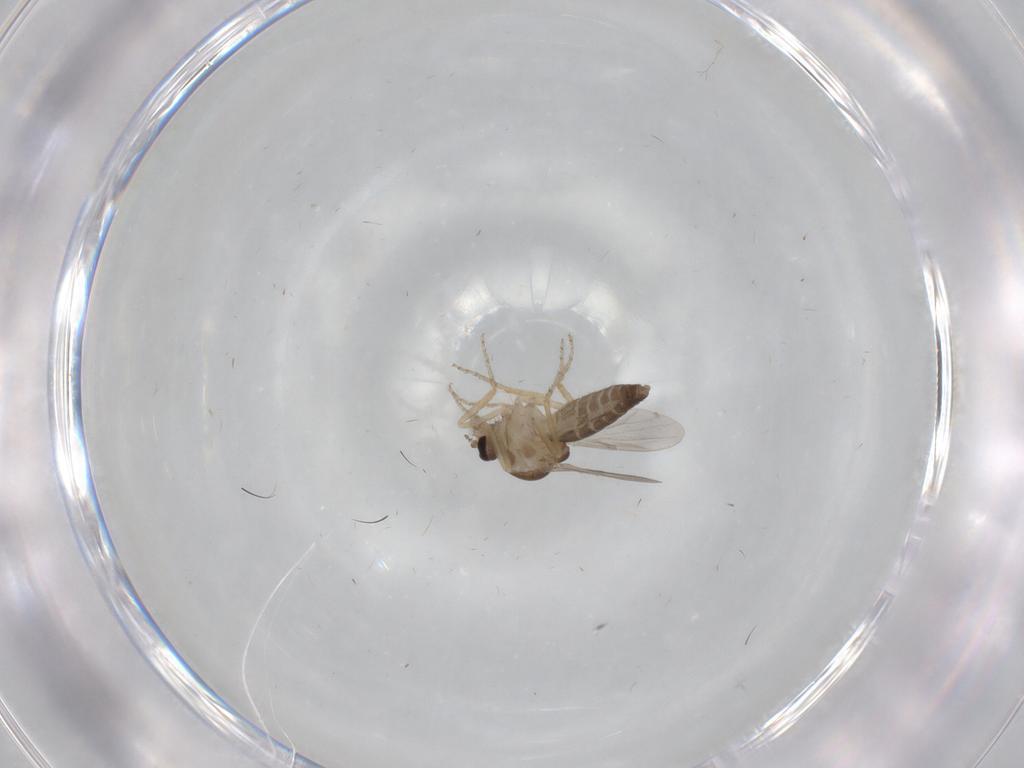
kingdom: Animalia
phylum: Arthropoda
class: Insecta
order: Diptera
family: Ceratopogonidae
